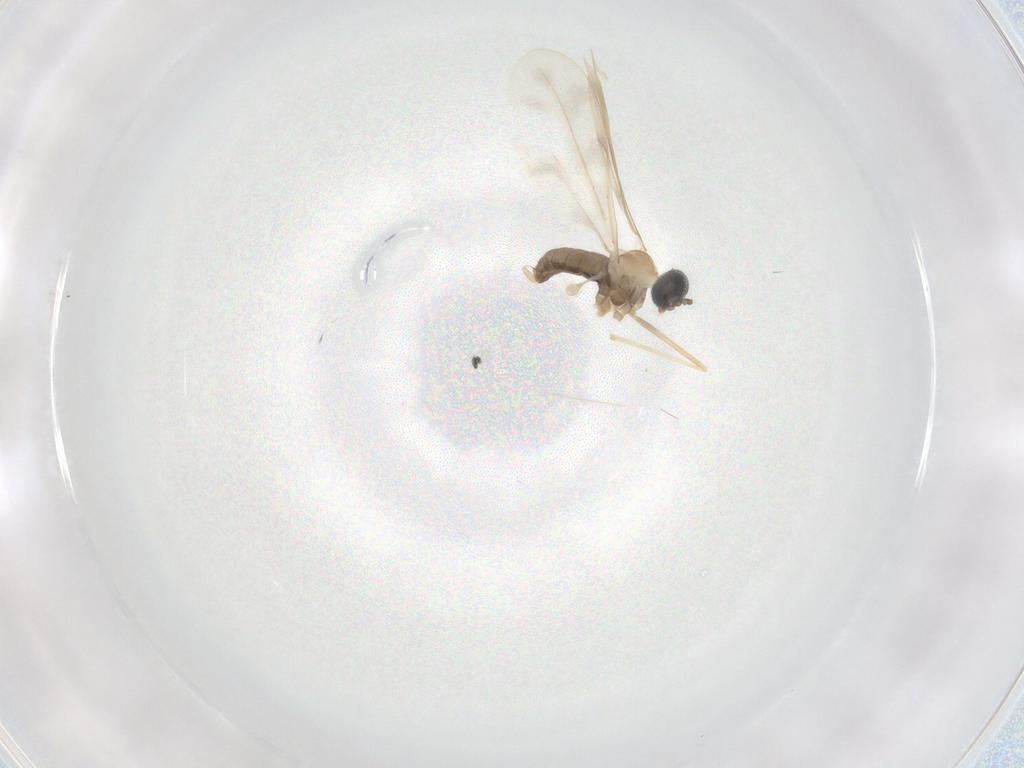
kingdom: Animalia
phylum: Arthropoda
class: Insecta
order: Diptera
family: Cecidomyiidae
